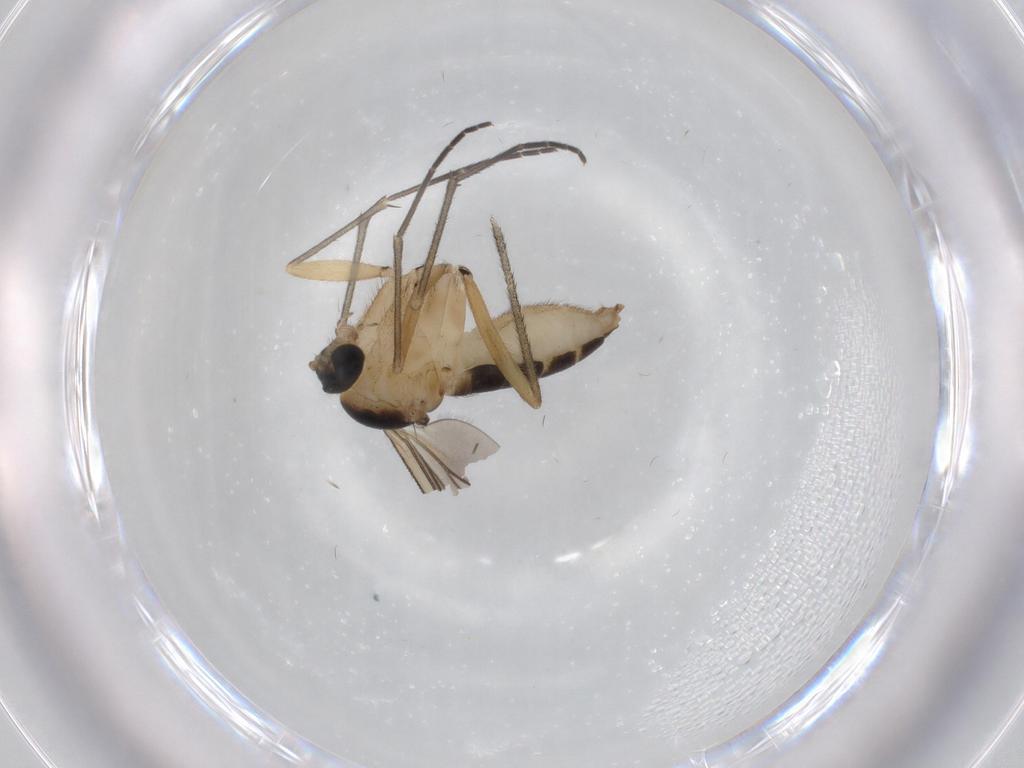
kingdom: Animalia
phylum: Arthropoda
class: Insecta
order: Diptera
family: Sciaridae
